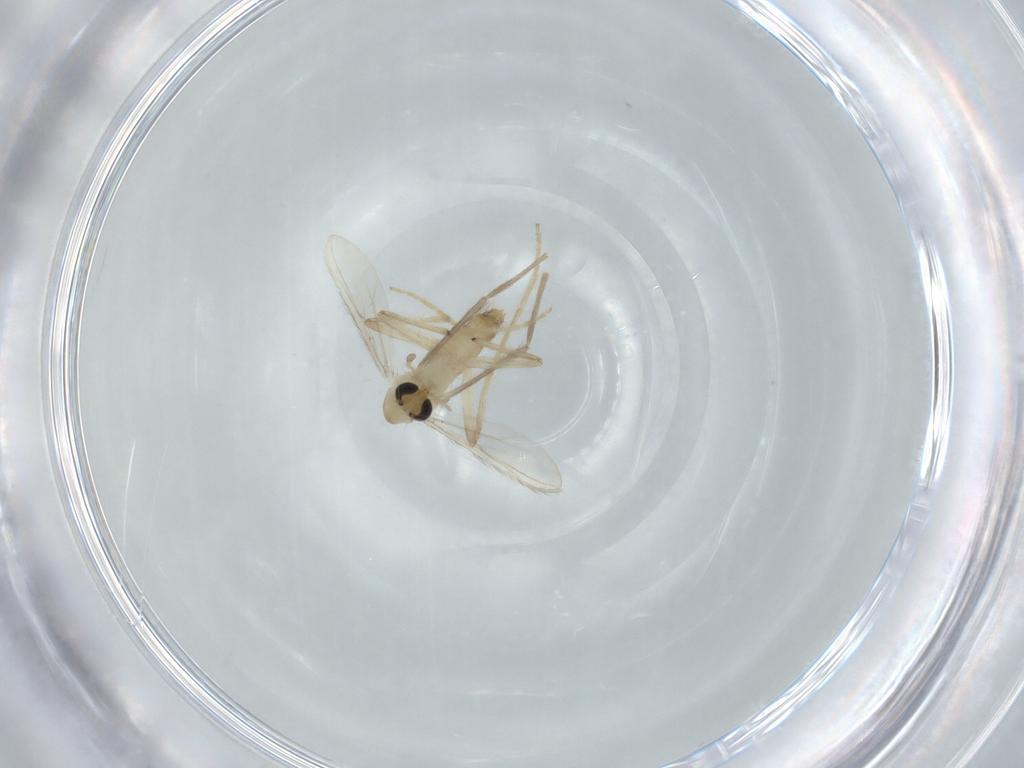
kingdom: Animalia
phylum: Arthropoda
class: Insecta
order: Diptera
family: Chironomidae
